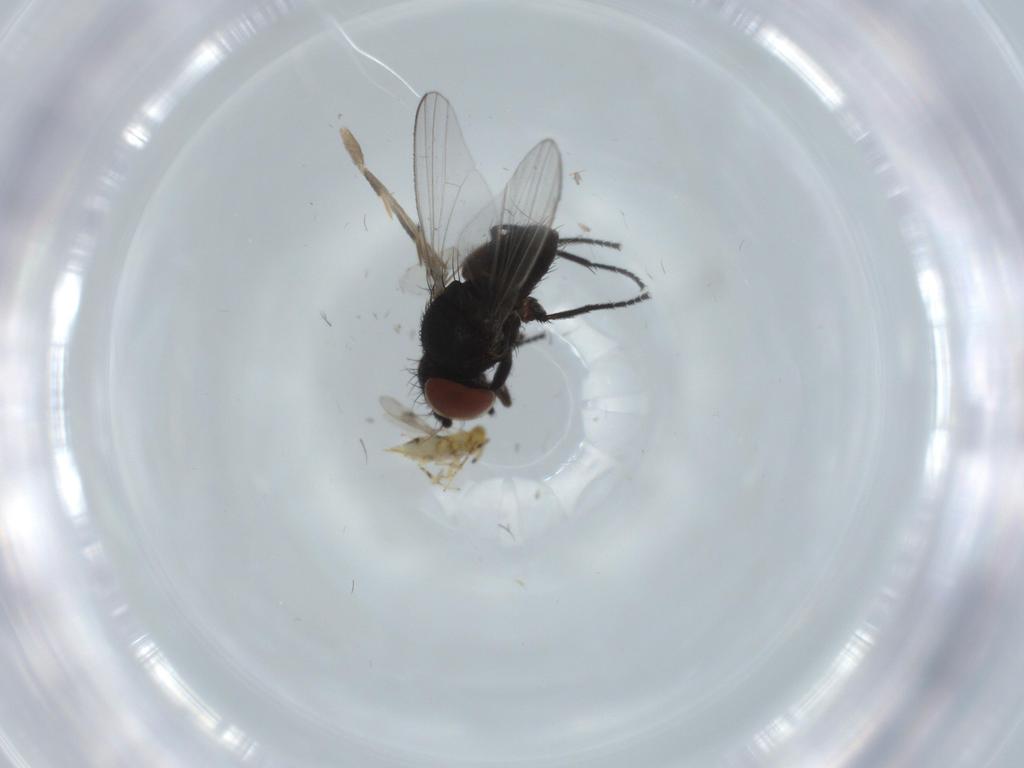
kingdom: Animalia
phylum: Arthropoda
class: Insecta
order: Diptera
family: Milichiidae
